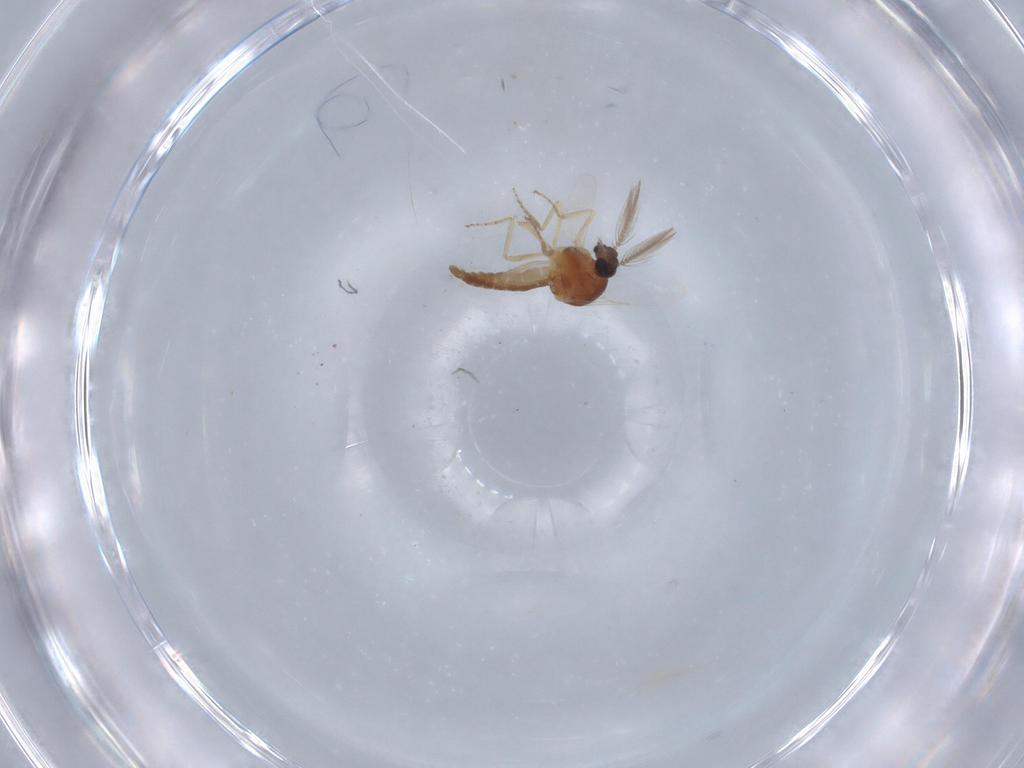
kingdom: Animalia
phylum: Arthropoda
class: Insecta
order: Diptera
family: Ceratopogonidae
